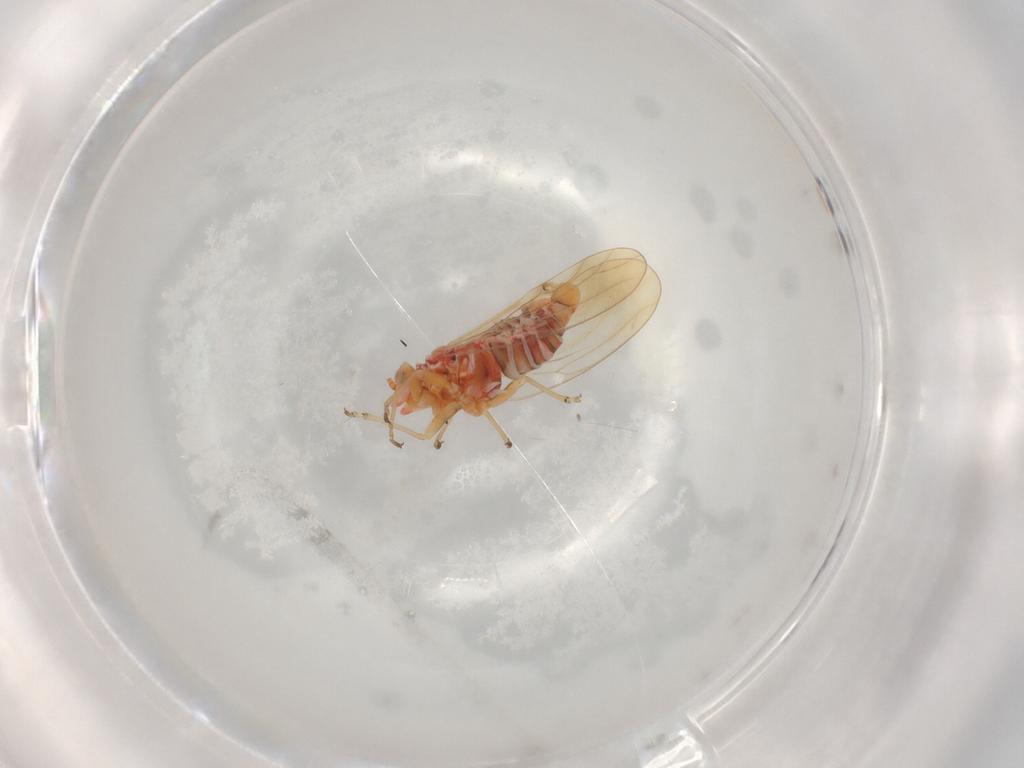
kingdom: Animalia
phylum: Arthropoda
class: Insecta
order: Hemiptera
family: Psyllidae
